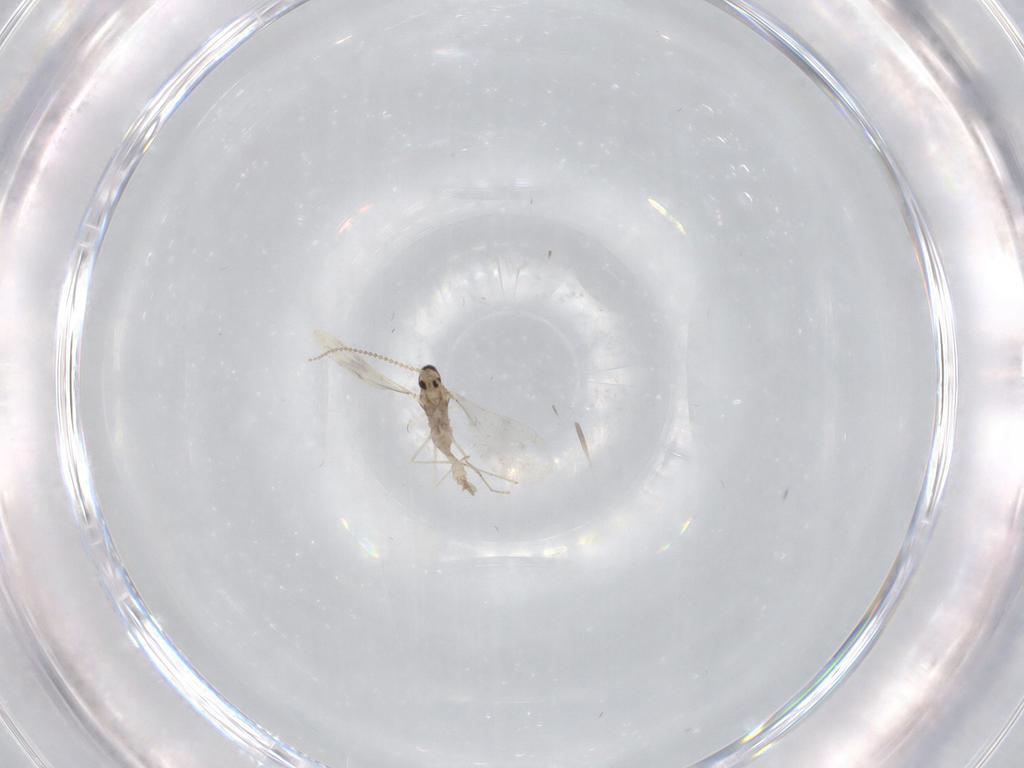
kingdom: Animalia
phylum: Arthropoda
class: Insecta
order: Diptera
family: Cecidomyiidae
